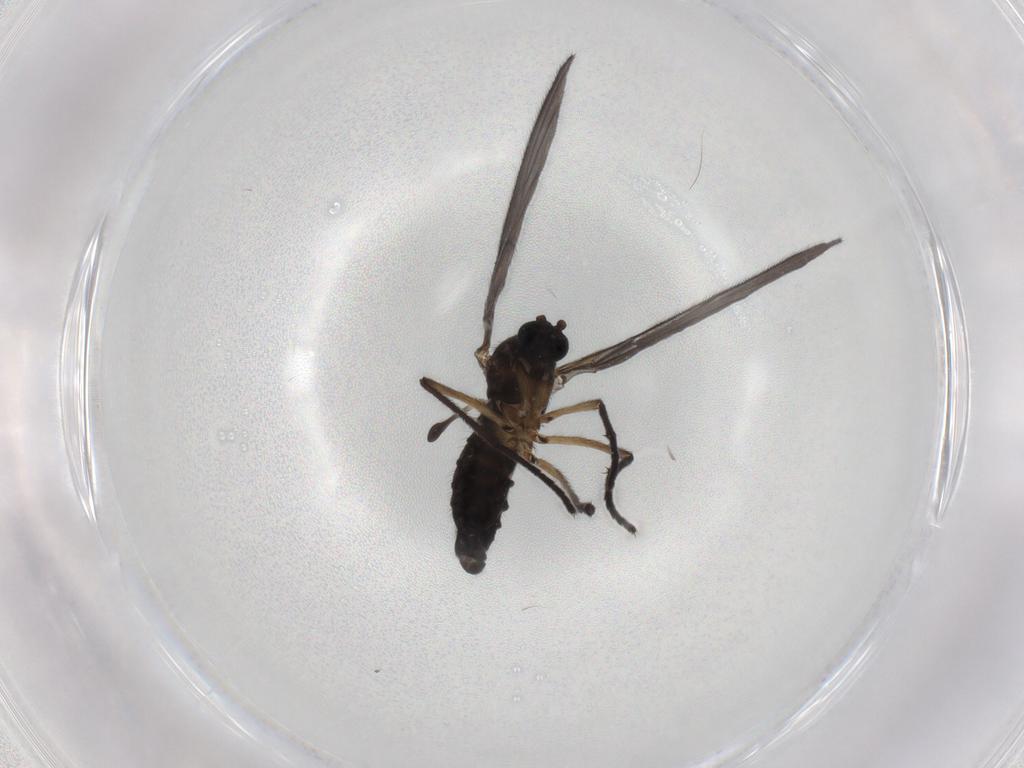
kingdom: Animalia
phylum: Arthropoda
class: Insecta
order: Diptera
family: Sciaridae
